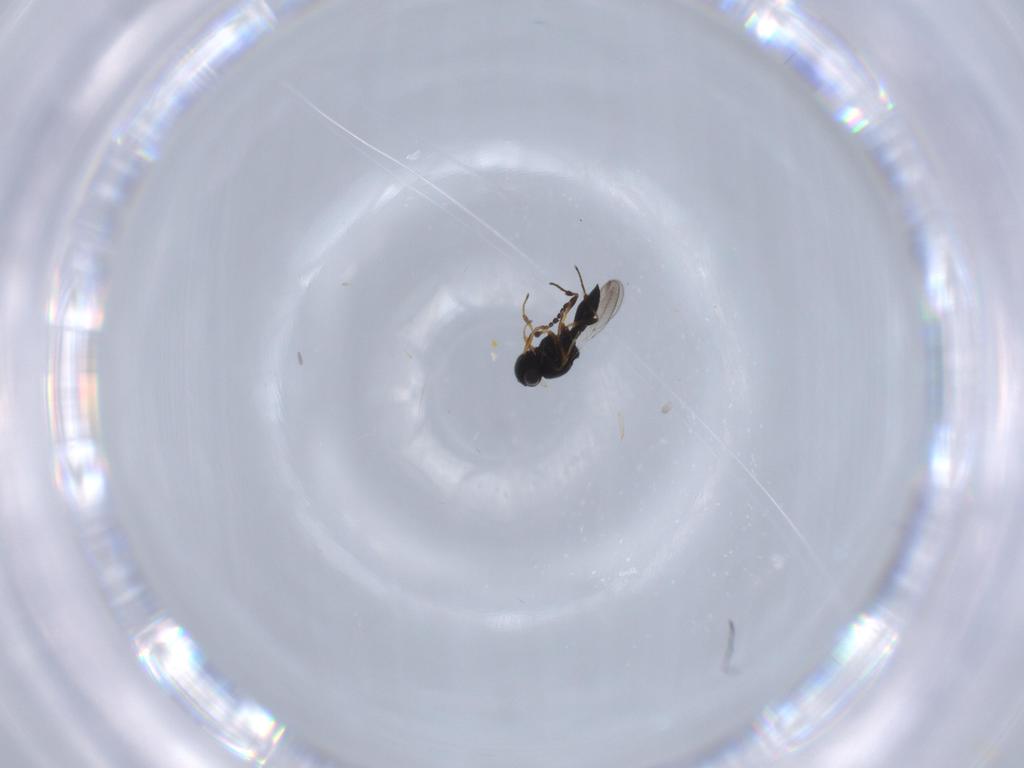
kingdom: Animalia
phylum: Arthropoda
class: Insecta
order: Hymenoptera
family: Platygastridae
